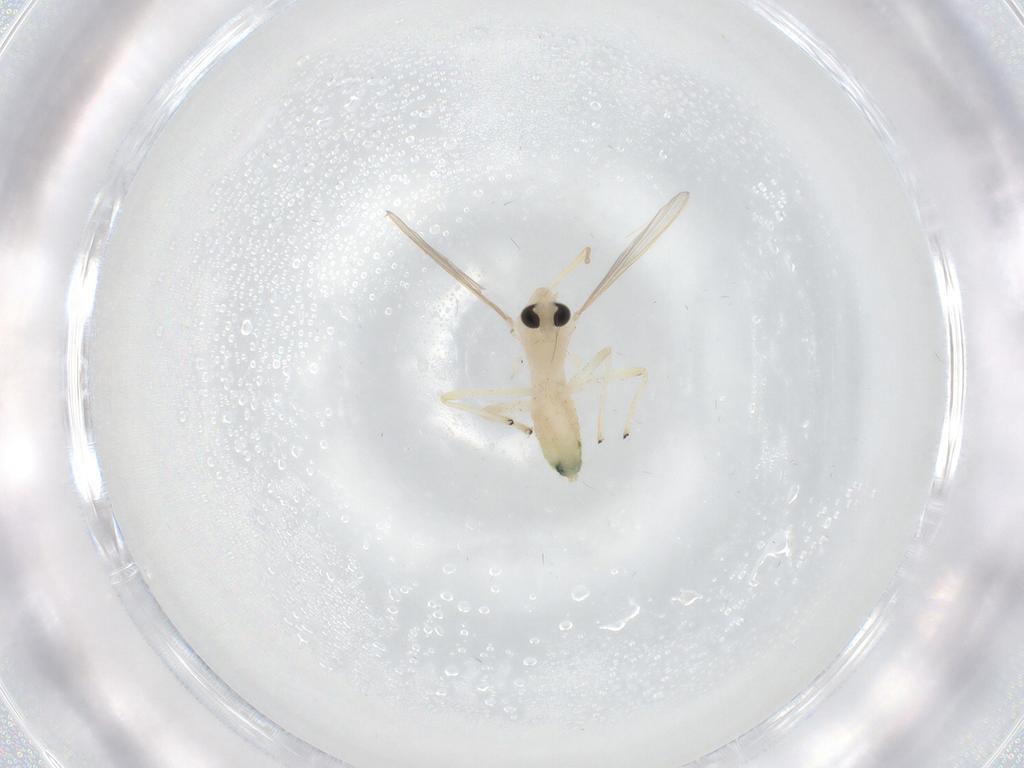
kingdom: Animalia
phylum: Arthropoda
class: Insecta
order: Diptera
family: Chironomidae
